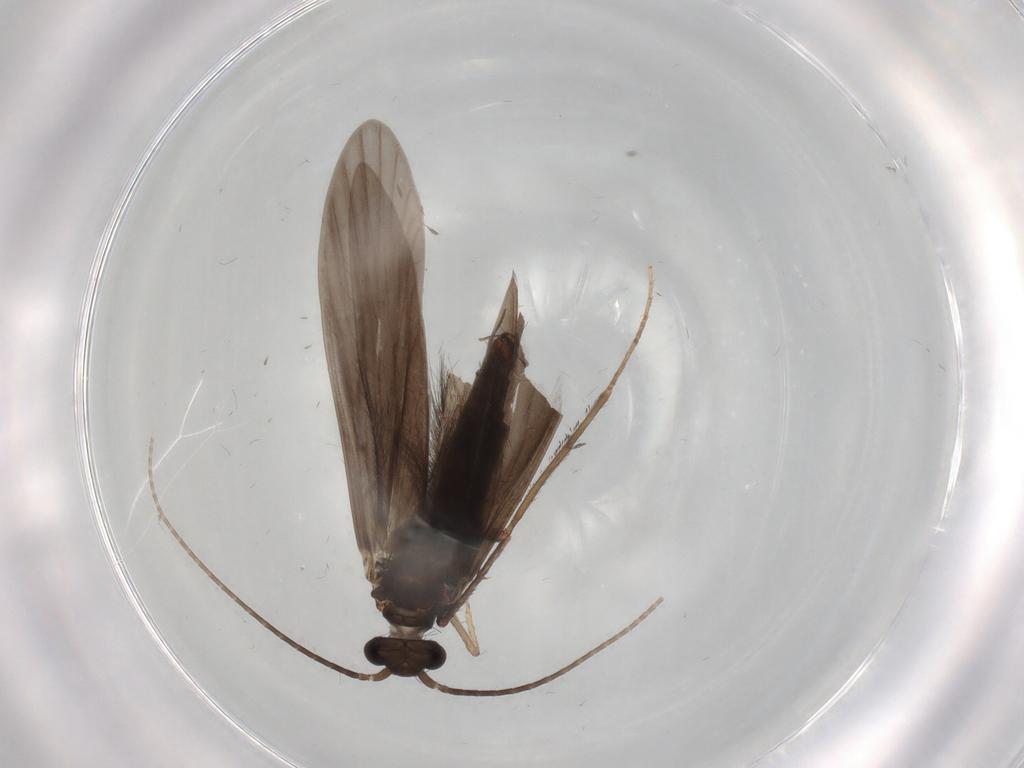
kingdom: Animalia
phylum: Arthropoda
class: Insecta
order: Trichoptera
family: Xiphocentronidae
